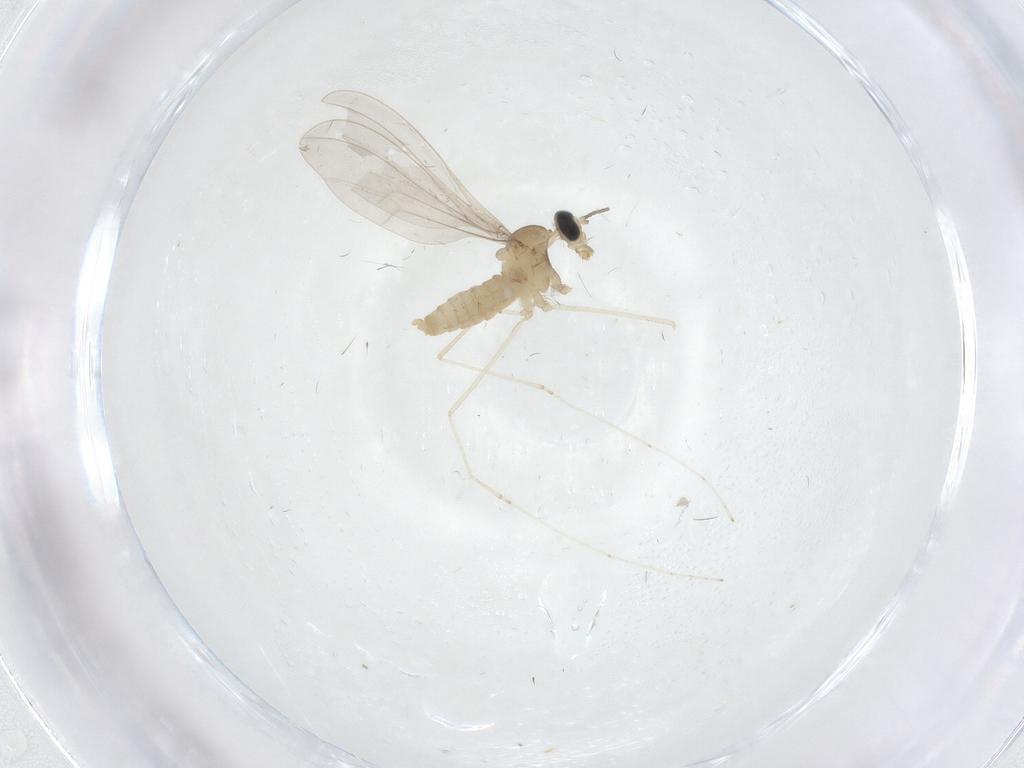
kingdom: Animalia
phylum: Arthropoda
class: Insecta
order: Diptera
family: Cecidomyiidae
